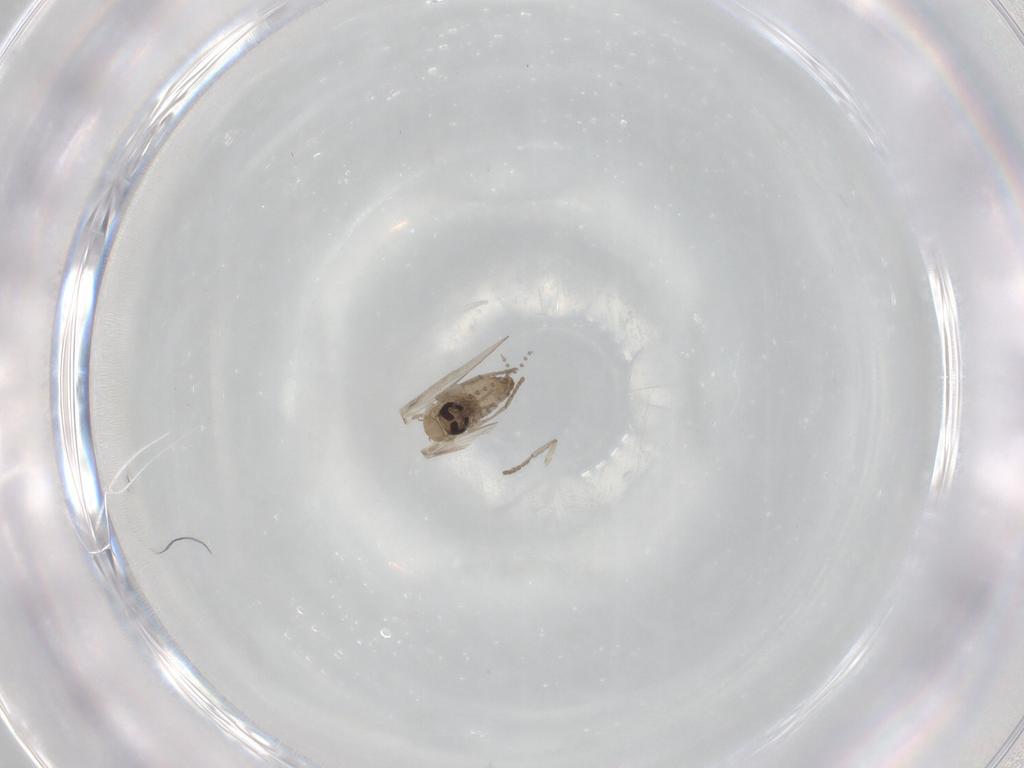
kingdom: Animalia
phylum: Arthropoda
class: Insecta
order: Diptera
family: Psychodidae
